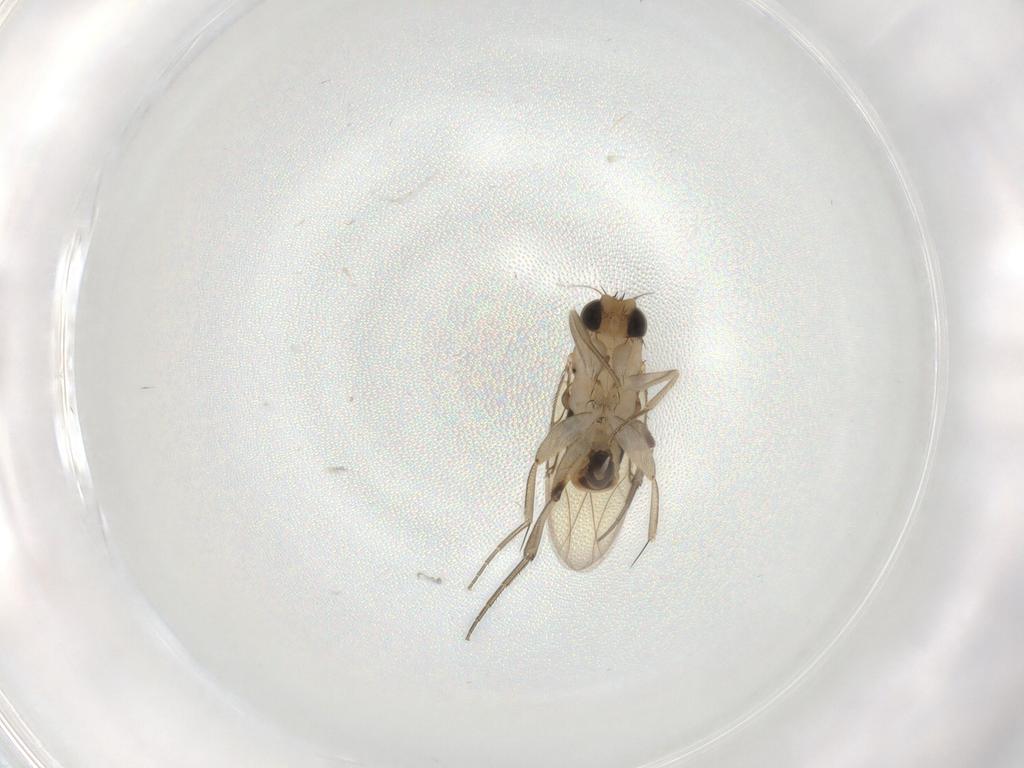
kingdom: Animalia
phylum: Arthropoda
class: Insecta
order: Diptera
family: Phoridae
